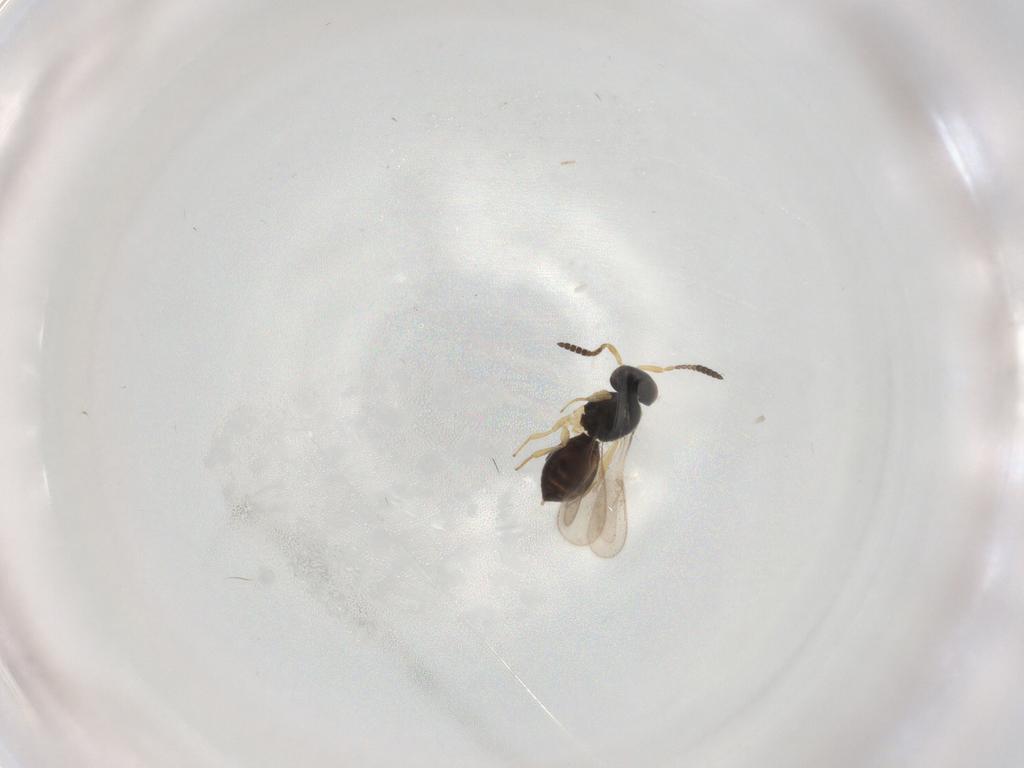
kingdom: Animalia
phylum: Arthropoda
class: Insecta
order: Hymenoptera
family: Scelionidae
